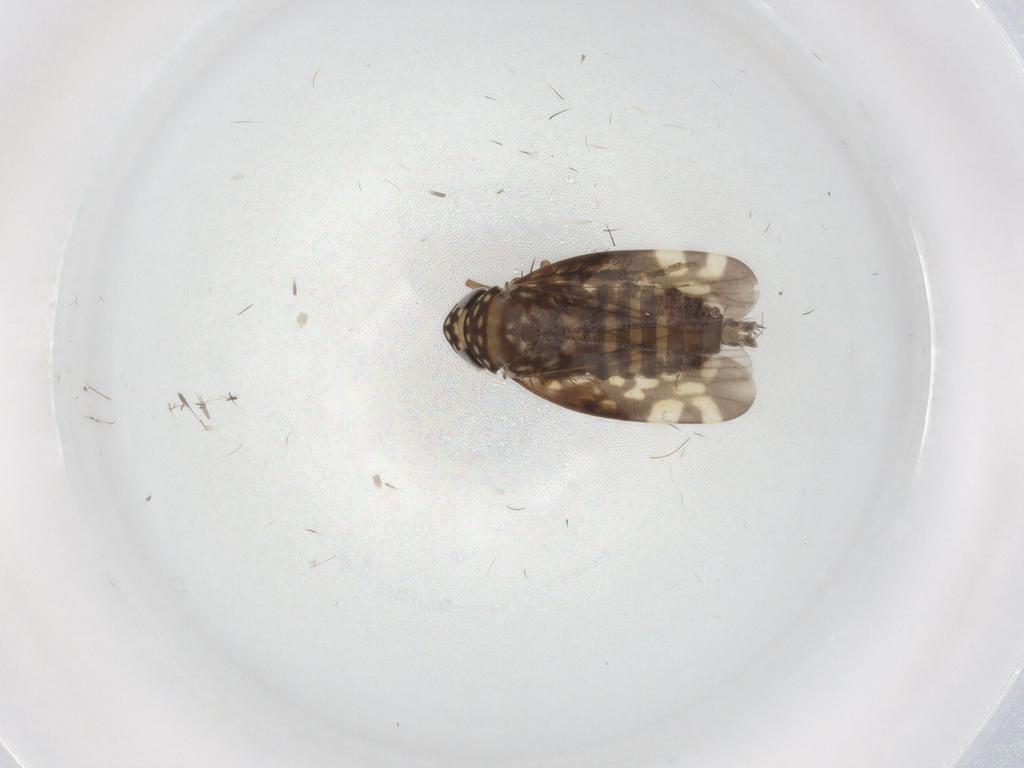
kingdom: Animalia
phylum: Arthropoda
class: Insecta
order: Hemiptera
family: Cicadellidae
